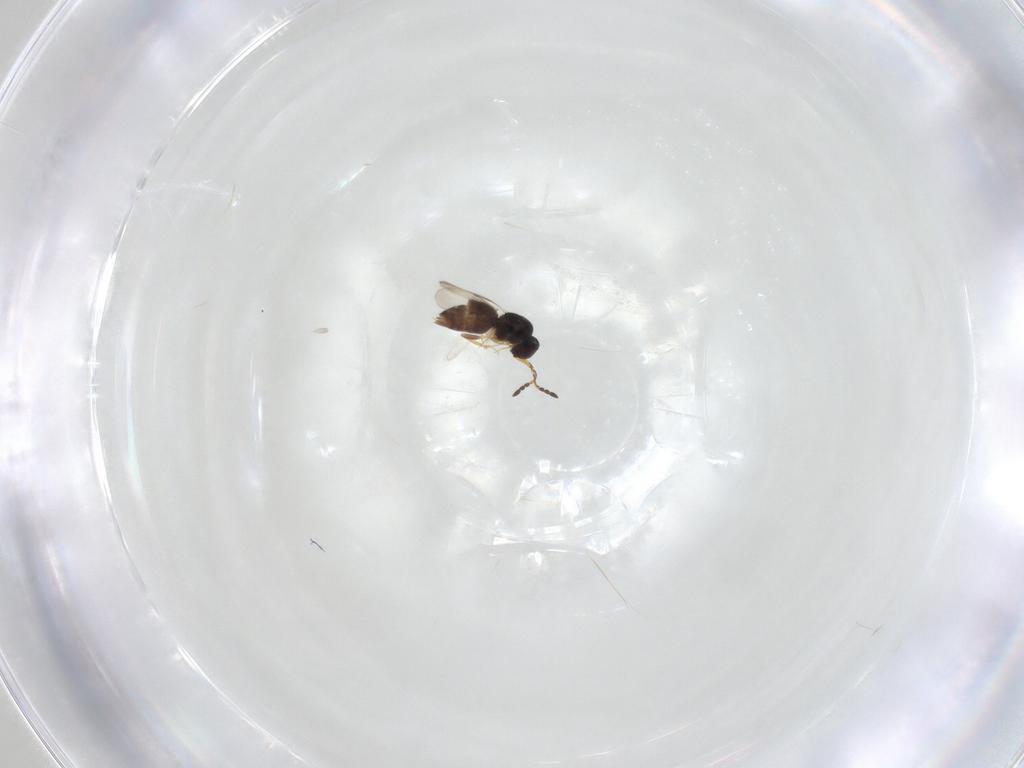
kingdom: Animalia
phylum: Arthropoda
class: Insecta
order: Hymenoptera
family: Ceraphronidae
